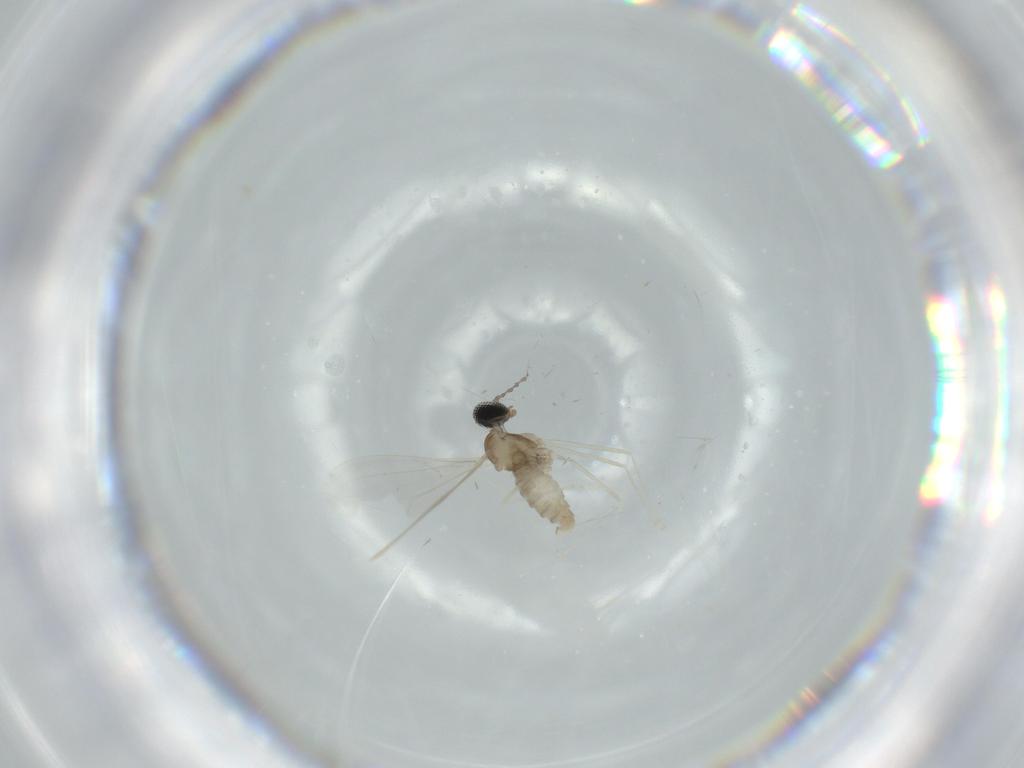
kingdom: Animalia
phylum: Arthropoda
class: Insecta
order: Diptera
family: Cecidomyiidae
